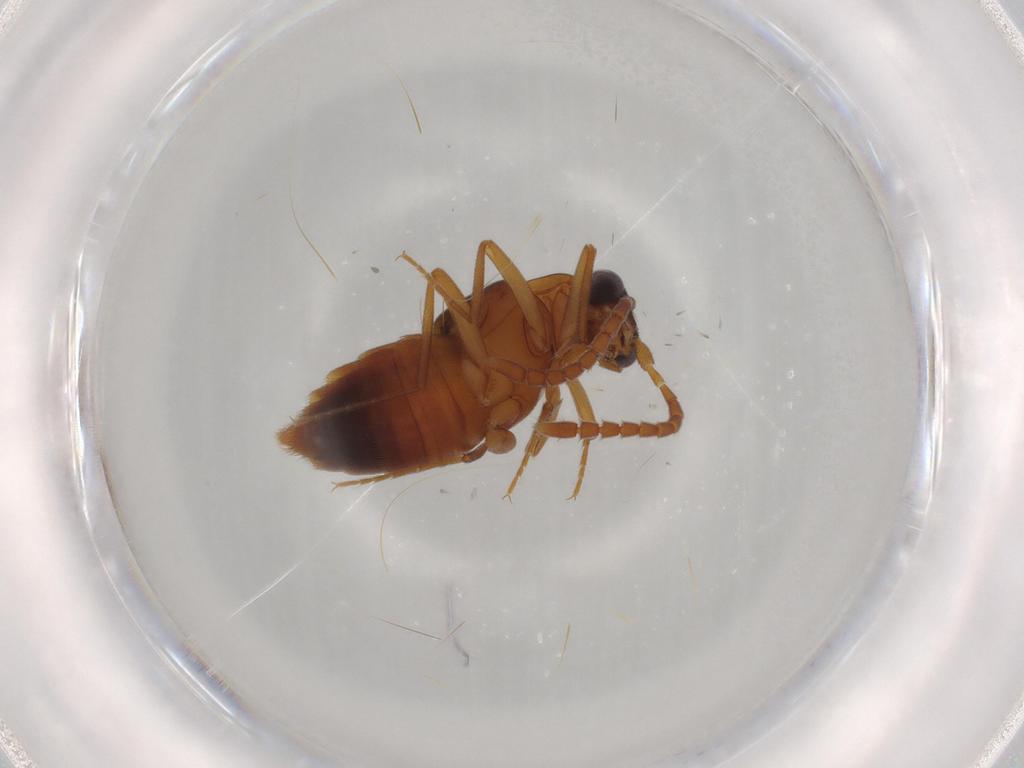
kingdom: Animalia
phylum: Arthropoda
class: Insecta
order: Coleoptera
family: Staphylinidae
